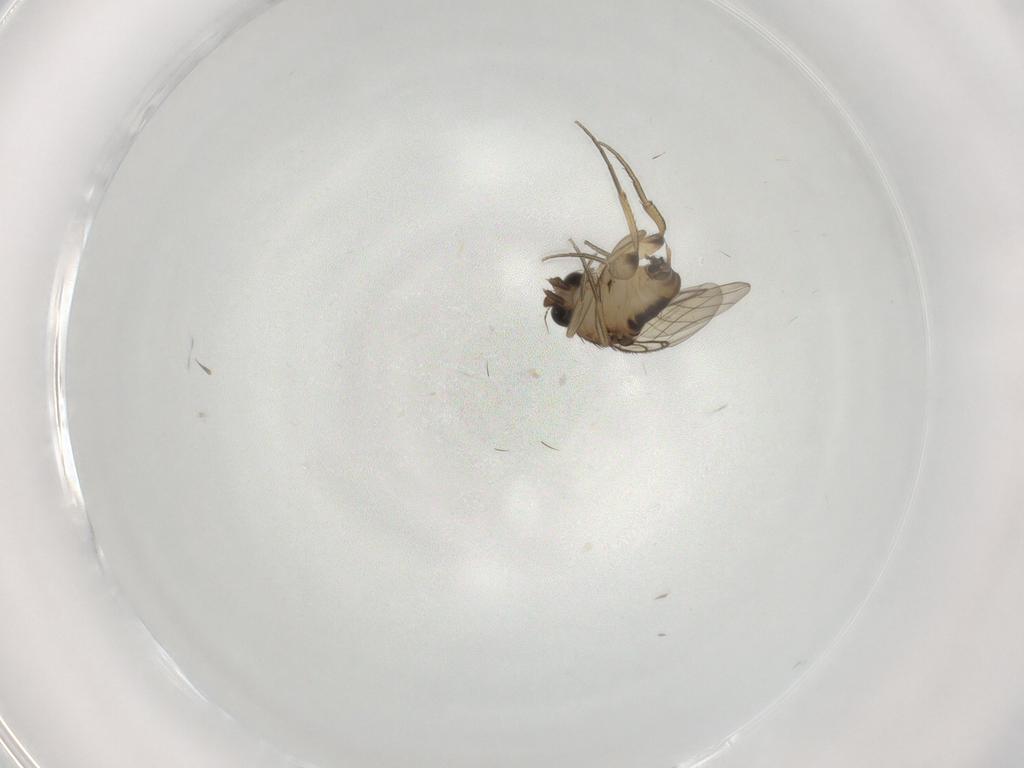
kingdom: Animalia
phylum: Arthropoda
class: Insecta
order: Diptera
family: Phoridae
